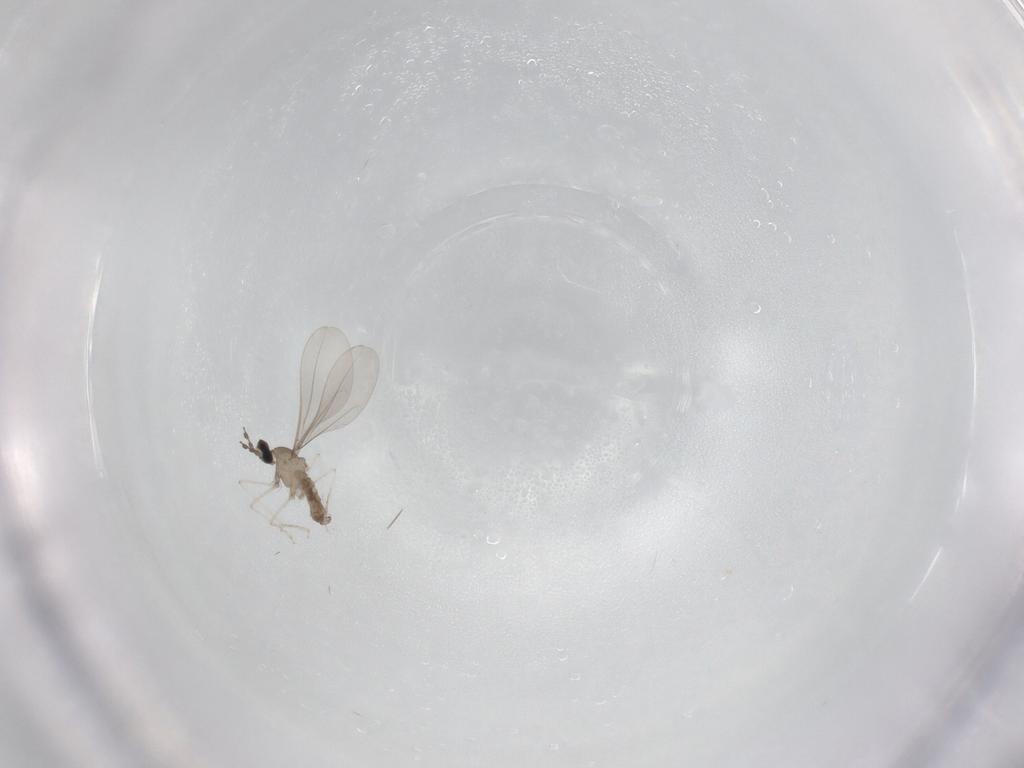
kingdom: Animalia
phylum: Arthropoda
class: Insecta
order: Diptera
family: Cecidomyiidae
